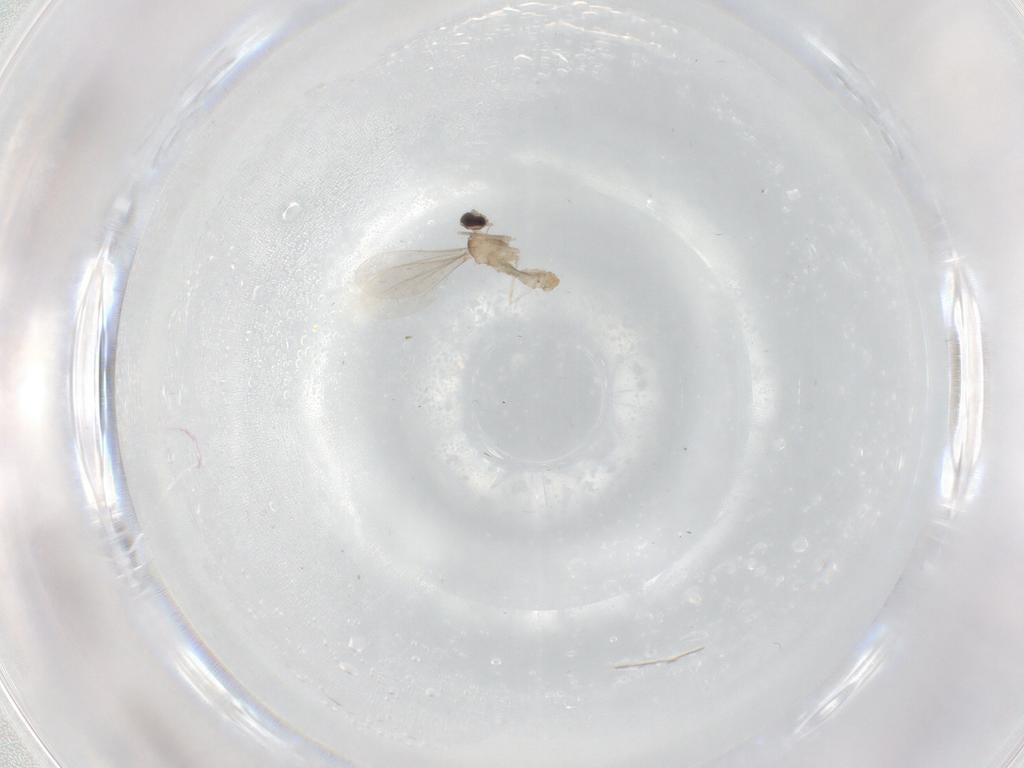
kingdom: Animalia
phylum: Arthropoda
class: Insecta
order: Diptera
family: Cecidomyiidae
